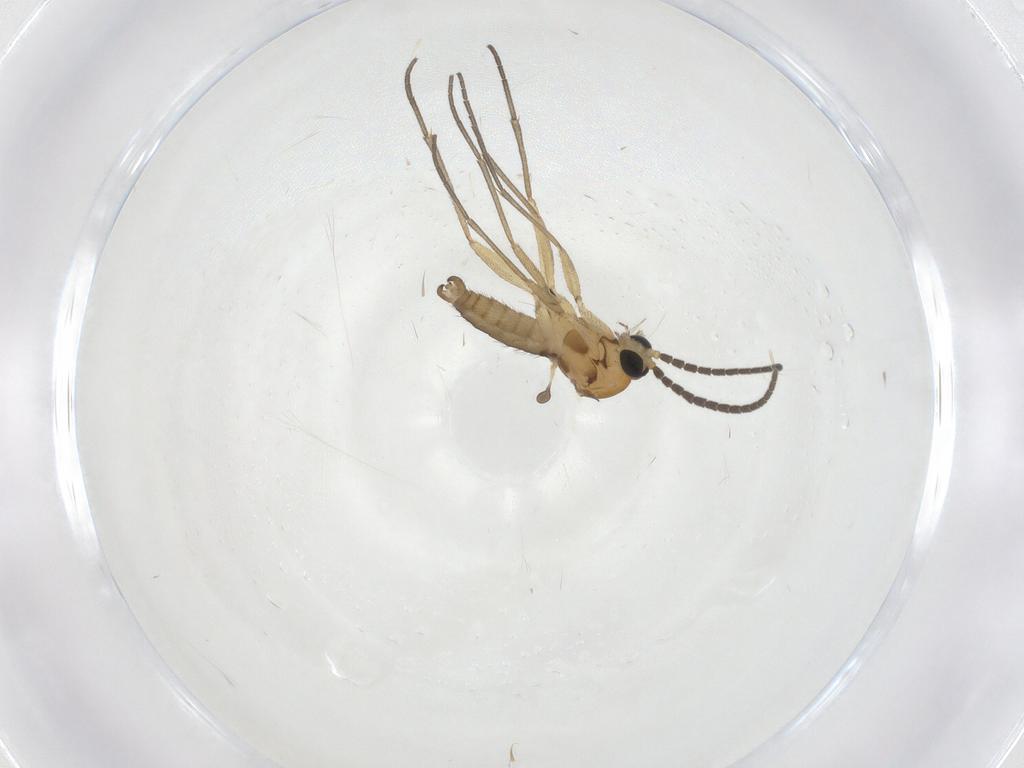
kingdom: Animalia
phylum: Arthropoda
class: Insecta
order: Diptera
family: Sciaridae
